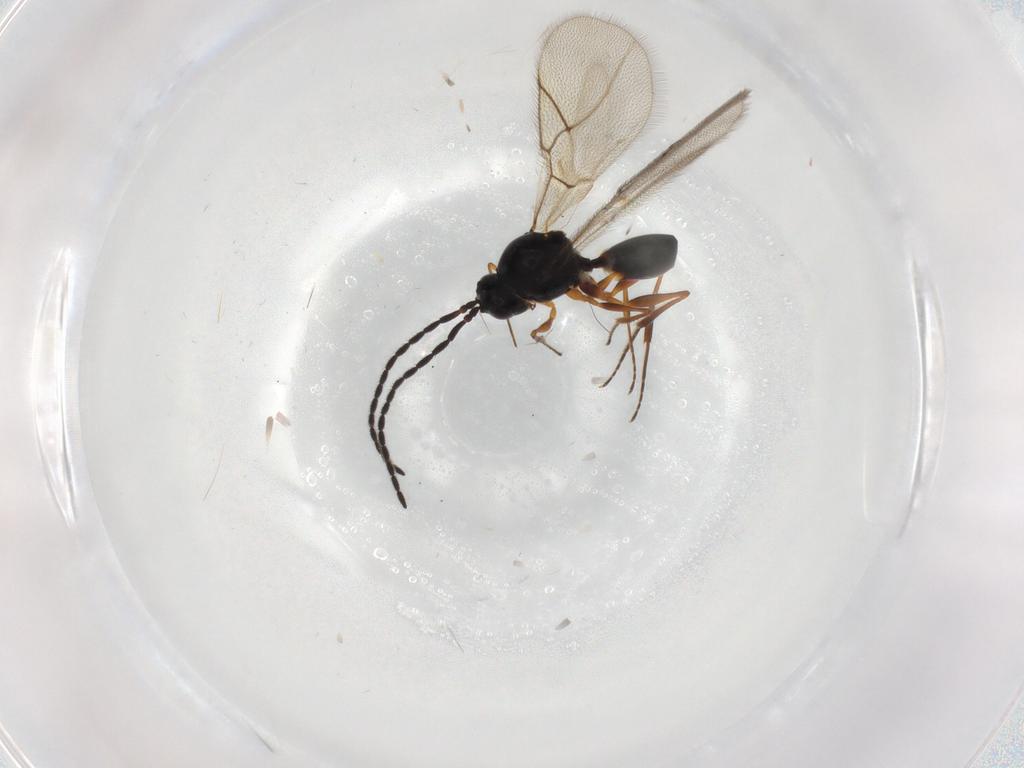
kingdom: Animalia
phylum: Arthropoda
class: Insecta
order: Hymenoptera
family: Figitidae
